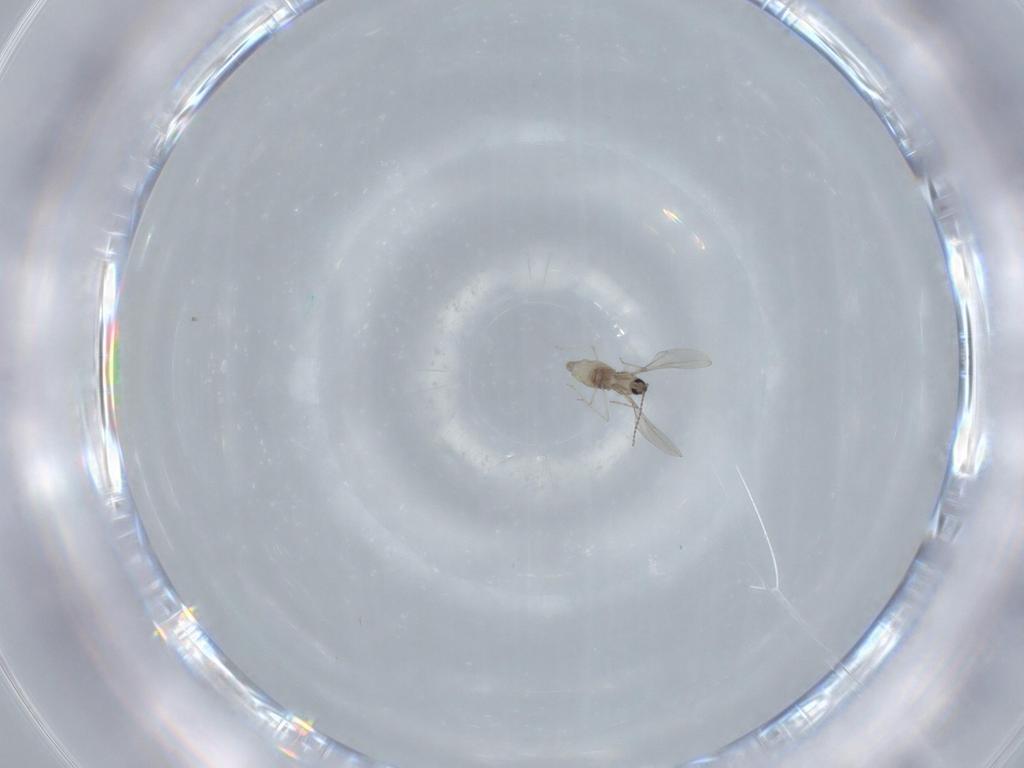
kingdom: Animalia
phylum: Arthropoda
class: Insecta
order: Diptera
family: Cecidomyiidae
